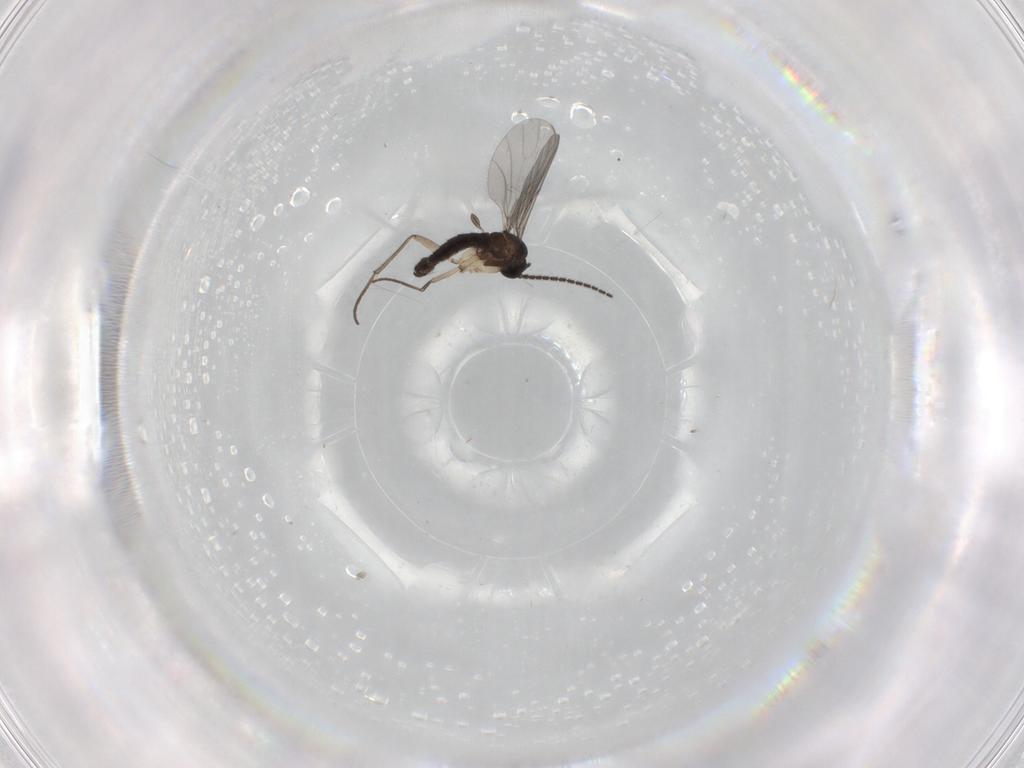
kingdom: Animalia
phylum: Arthropoda
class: Insecta
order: Diptera
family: Sciaridae
